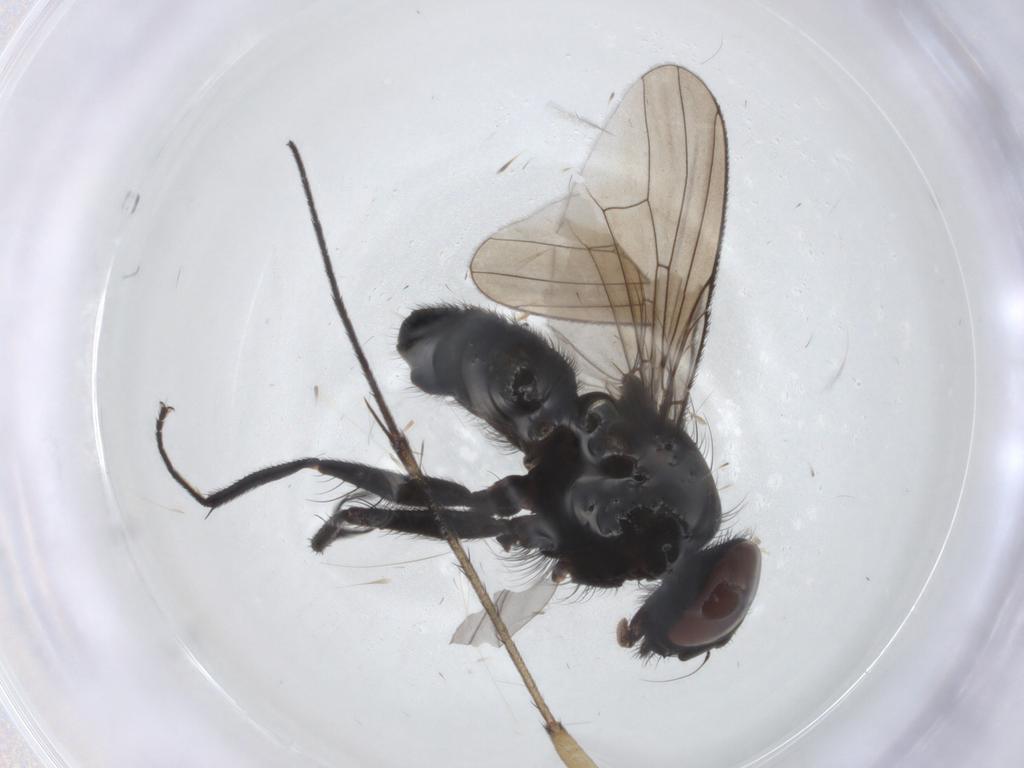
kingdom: Animalia
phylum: Arthropoda
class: Insecta
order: Diptera
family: Muscidae
